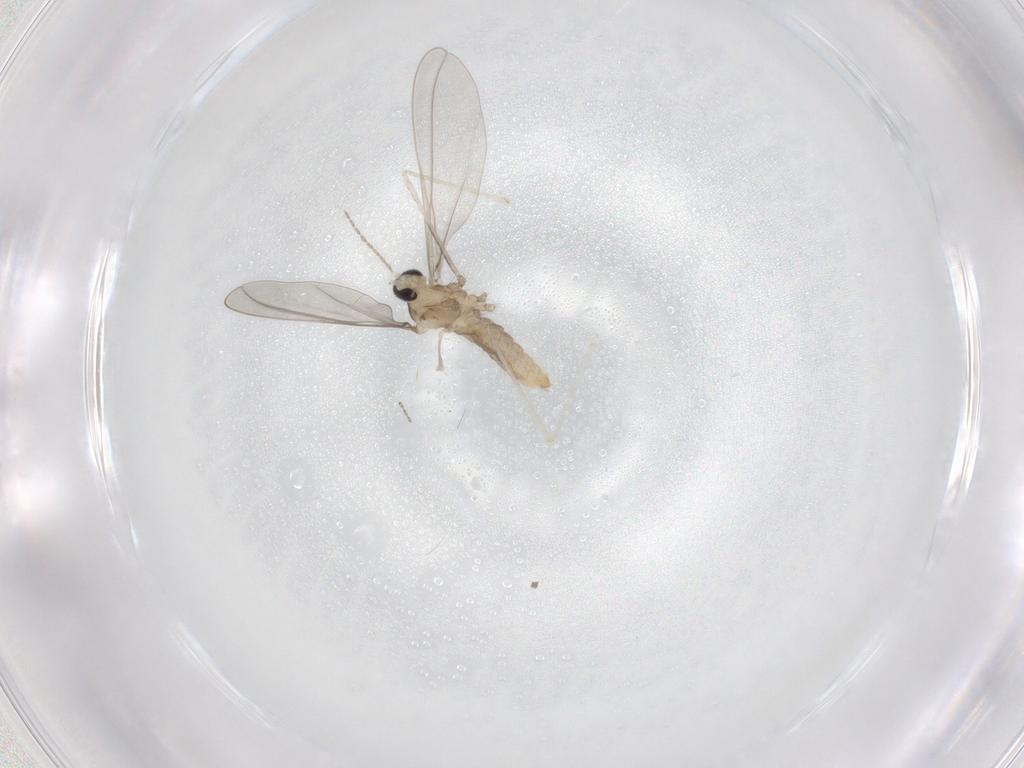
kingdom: Animalia
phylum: Arthropoda
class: Insecta
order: Diptera
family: Cecidomyiidae
